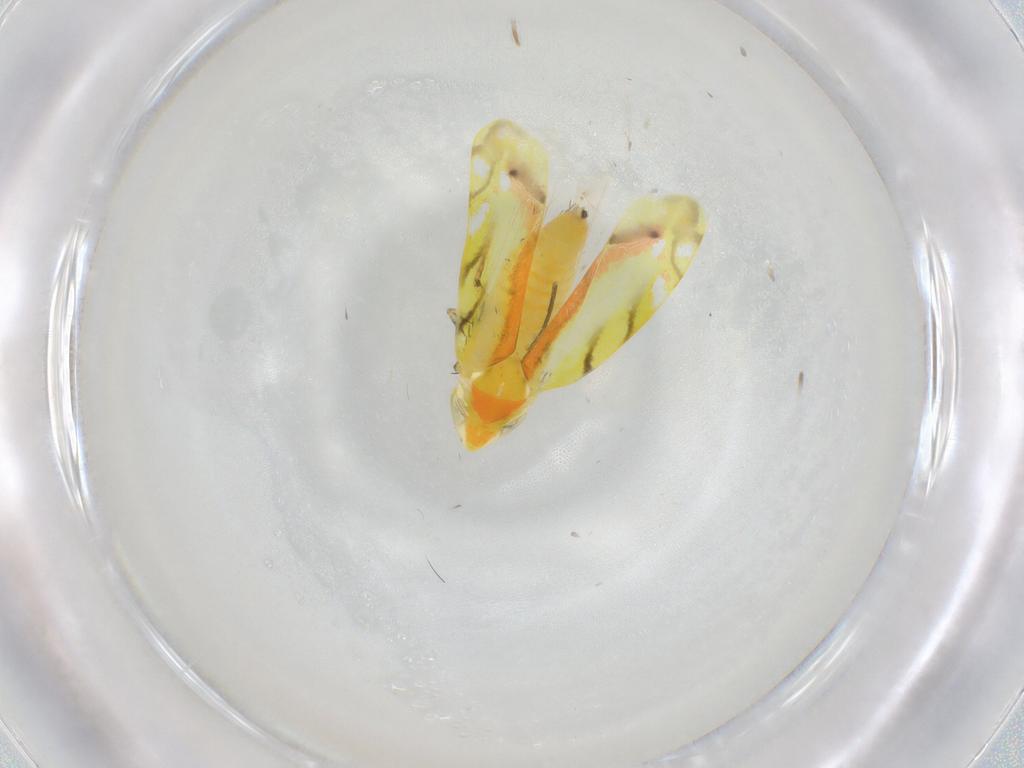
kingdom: Animalia
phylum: Arthropoda
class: Insecta
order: Hemiptera
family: Cicadellidae
